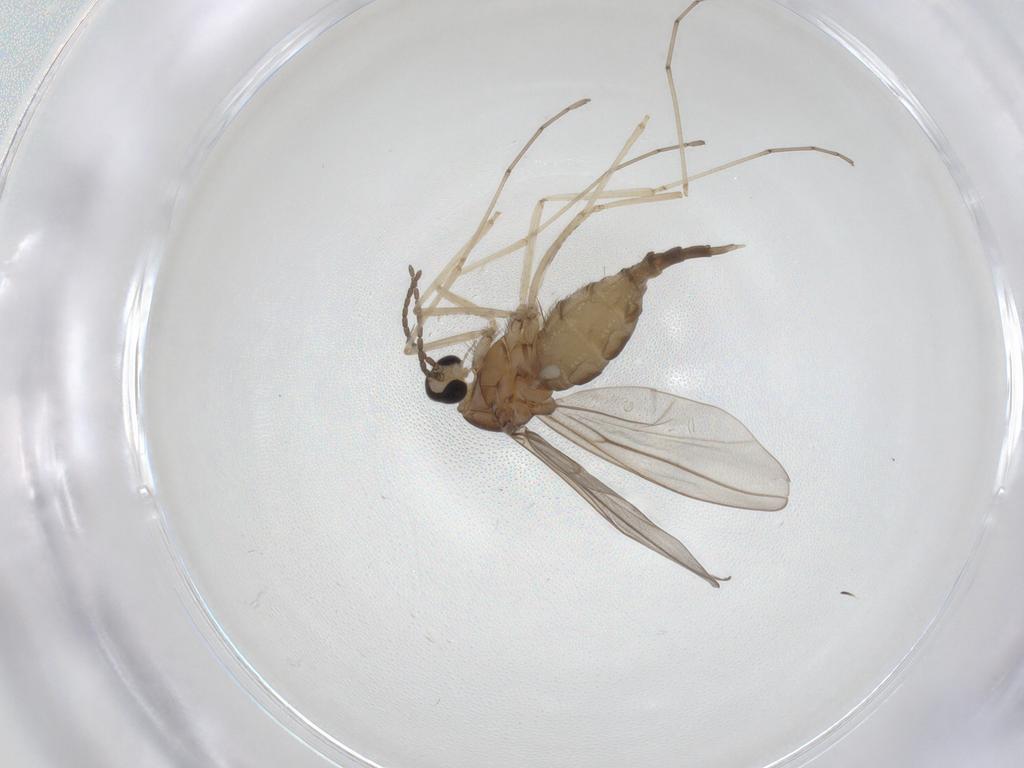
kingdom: Animalia
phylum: Arthropoda
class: Insecta
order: Diptera
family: Cecidomyiidae
